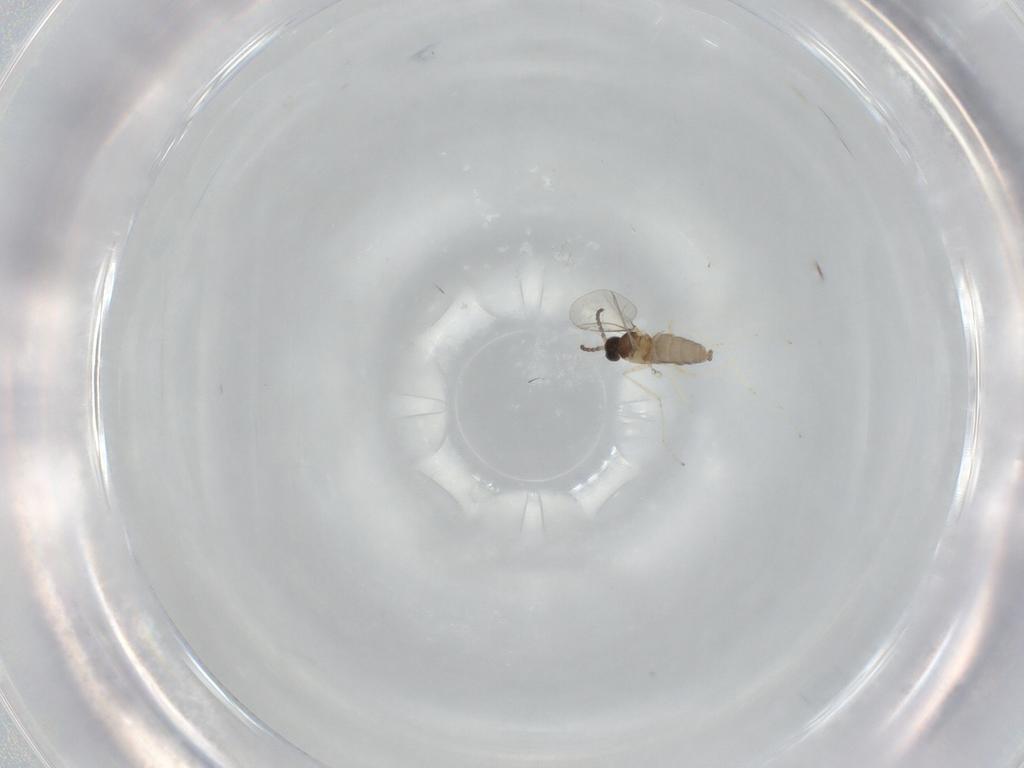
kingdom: Animalia
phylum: Arthropoda
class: Insecta
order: Diptera
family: Cecidomyiidae
